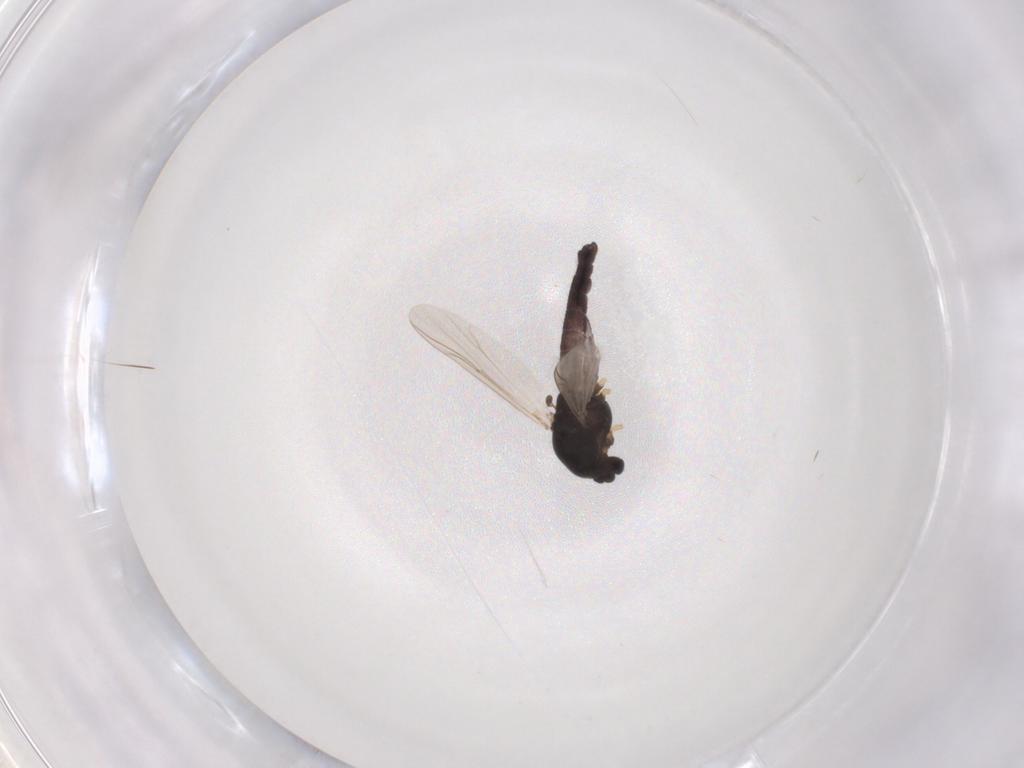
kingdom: Animalia
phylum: Arthropoda
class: Insecta
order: Diptera
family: Chironomidae
